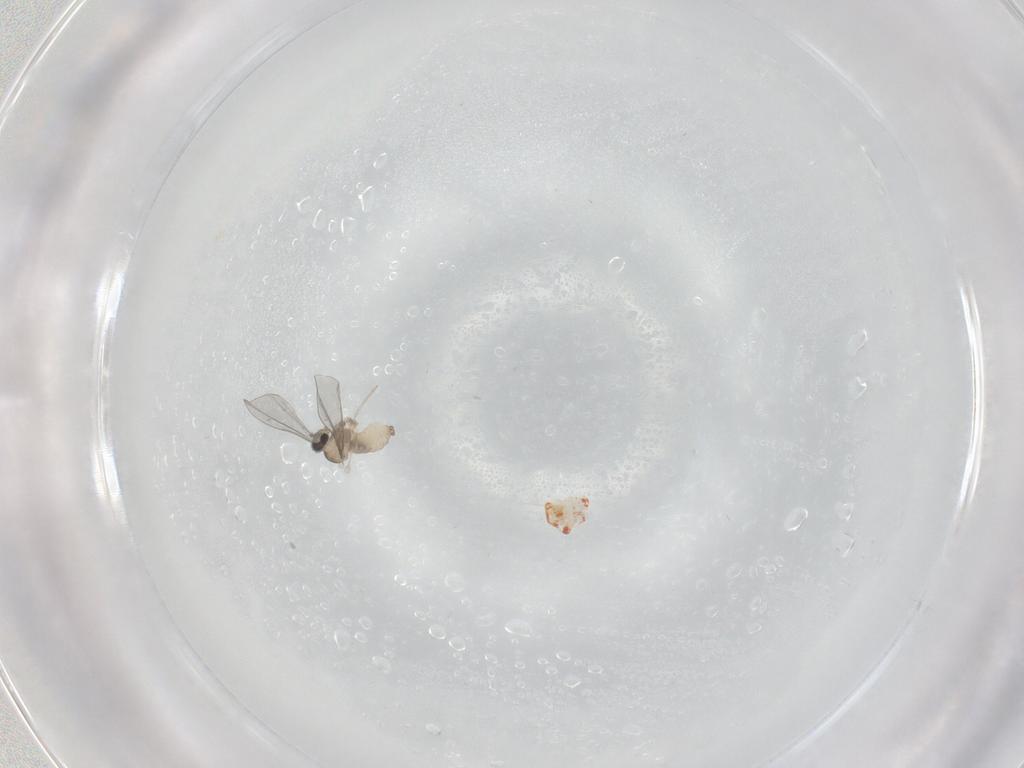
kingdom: Animalia
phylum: Arthropoda
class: Insecta
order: Diptera
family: Cecidomyiidae
